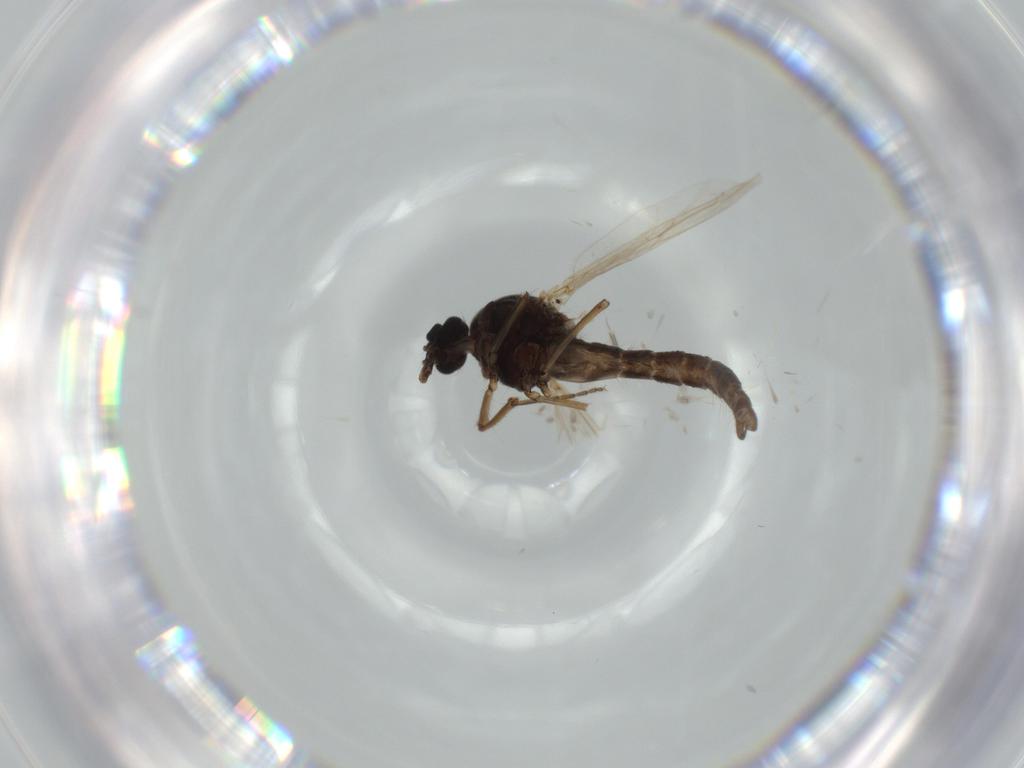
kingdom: Animalia
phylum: Arthropoda
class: Insecta
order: Diptera
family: Ceratopogonidae
